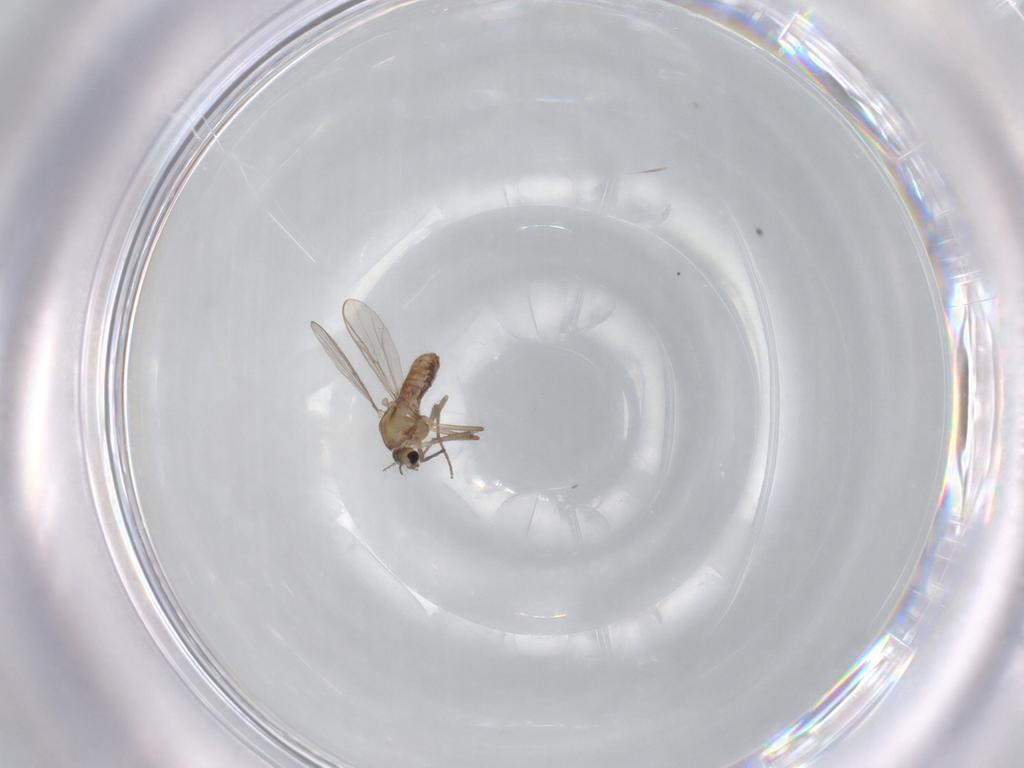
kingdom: Animalia
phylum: Arthropoda
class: Insecta
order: Diptera
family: Chironomidae
